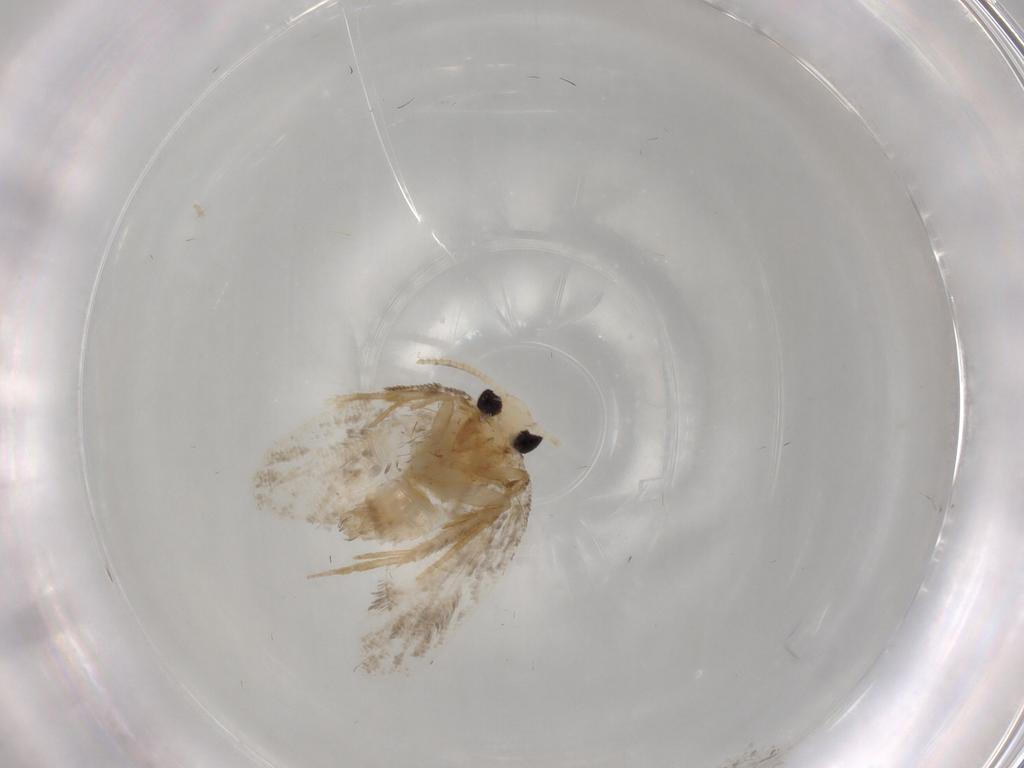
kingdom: Animalia
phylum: Arthropoda
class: Insecta
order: Lepidoptera
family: Psychidae
